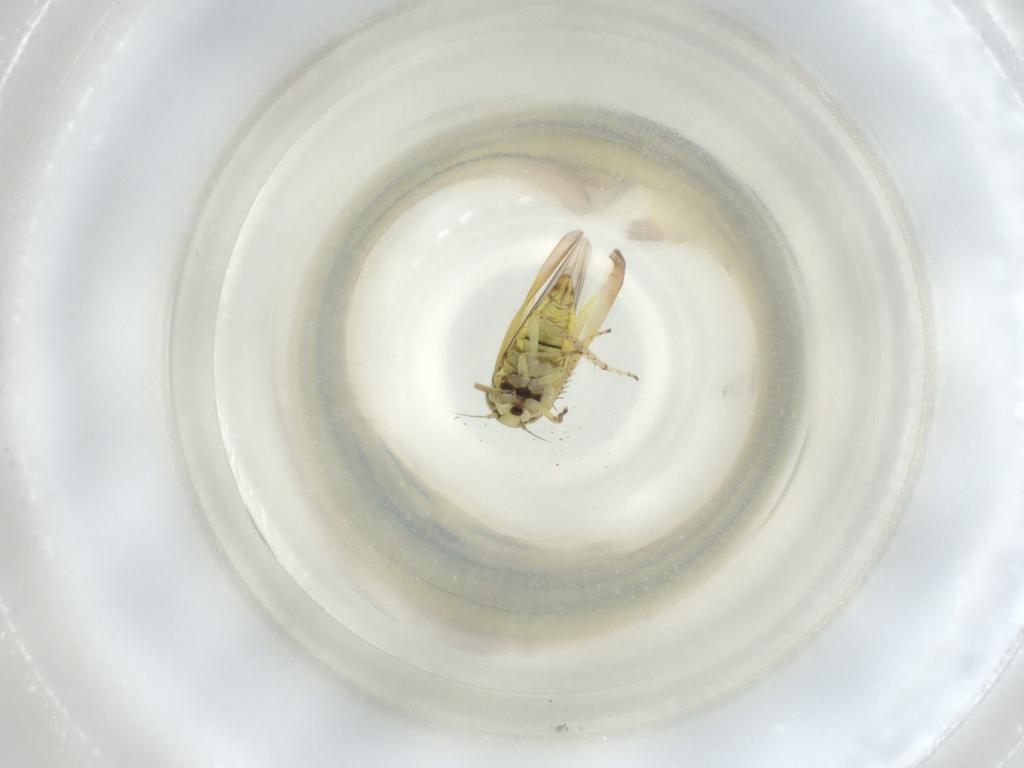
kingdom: Animalia
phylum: Arthropoda
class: Insecta
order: Hemiptera
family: Cicadellidae
